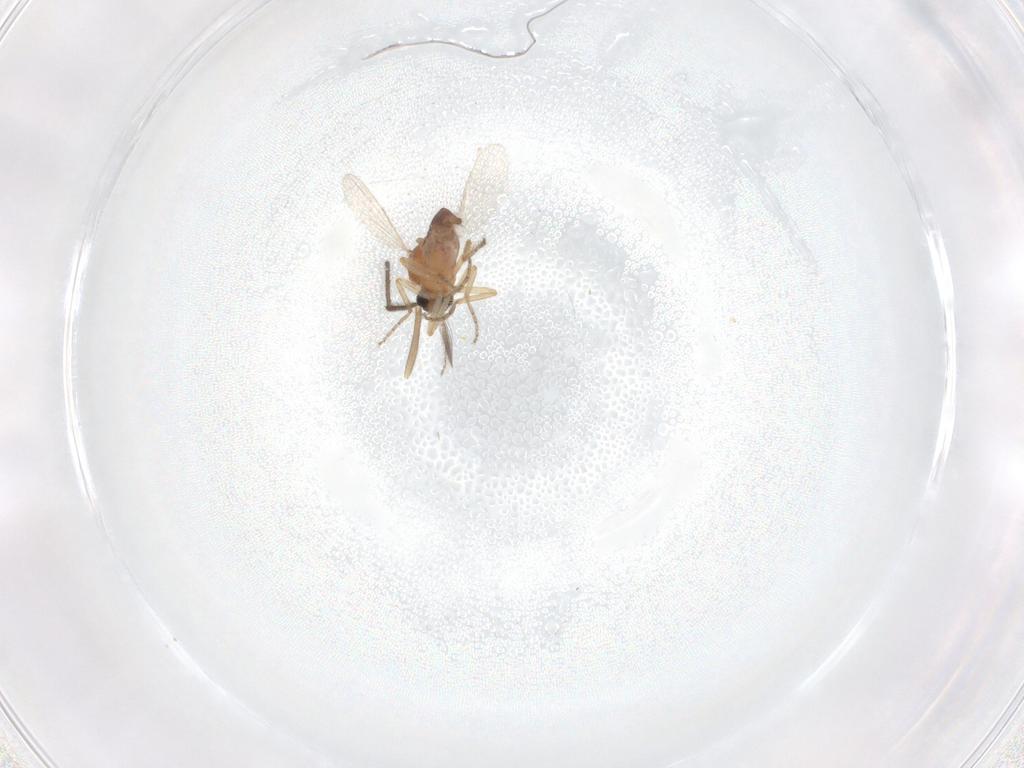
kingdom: Animalia
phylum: Arthropoda
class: Insecta
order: Diptera
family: Ceratopogonidae
